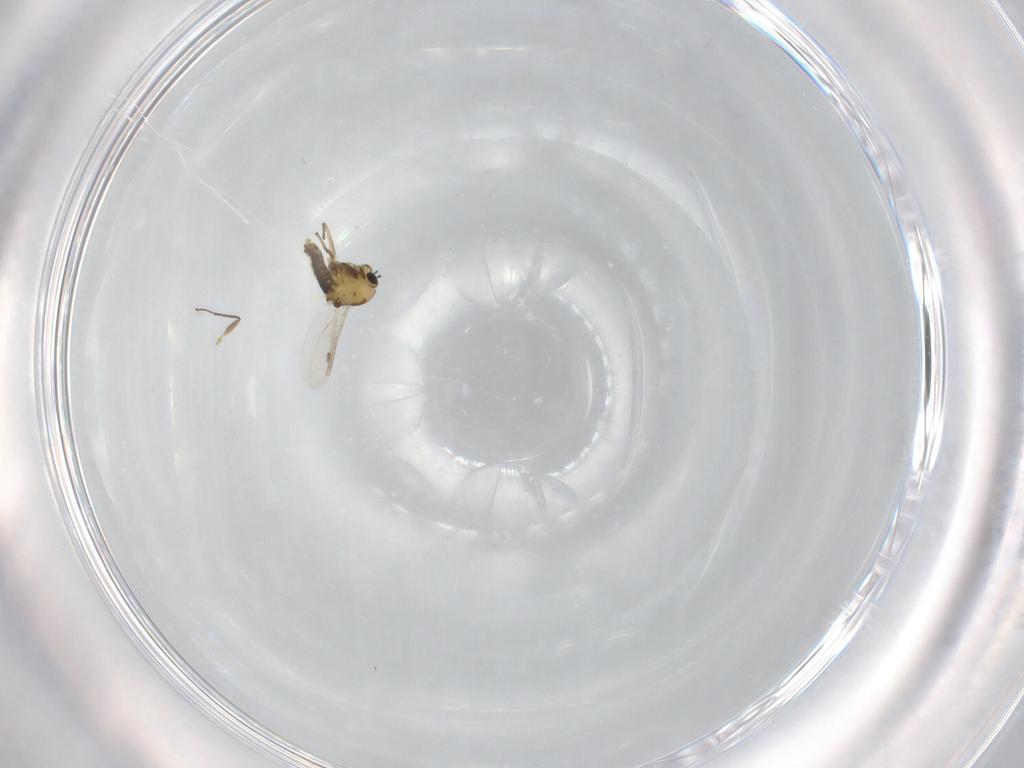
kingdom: Animalia
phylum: Arthropoda
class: Insecta
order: Diptera
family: Chironomidae
